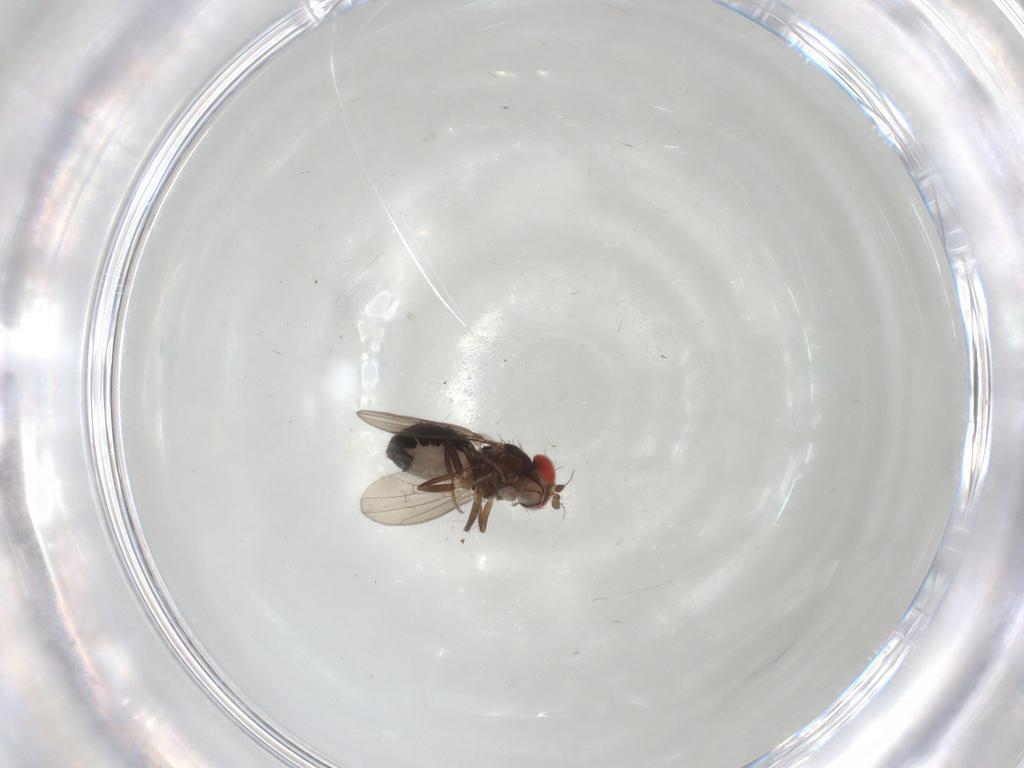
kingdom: Animalia
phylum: Arthropoda
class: Insecta
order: Diptera
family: Drosophilidae
